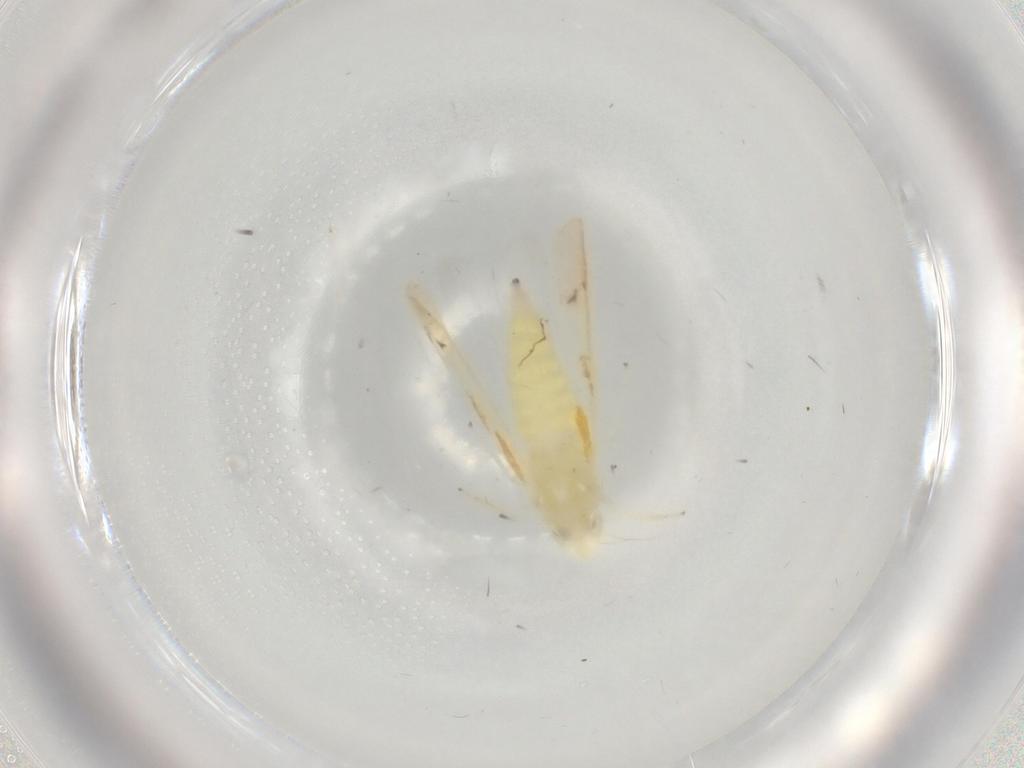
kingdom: Animalia
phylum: Arthropoda
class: Insecta
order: Hemiptera
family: Cicadellidae
